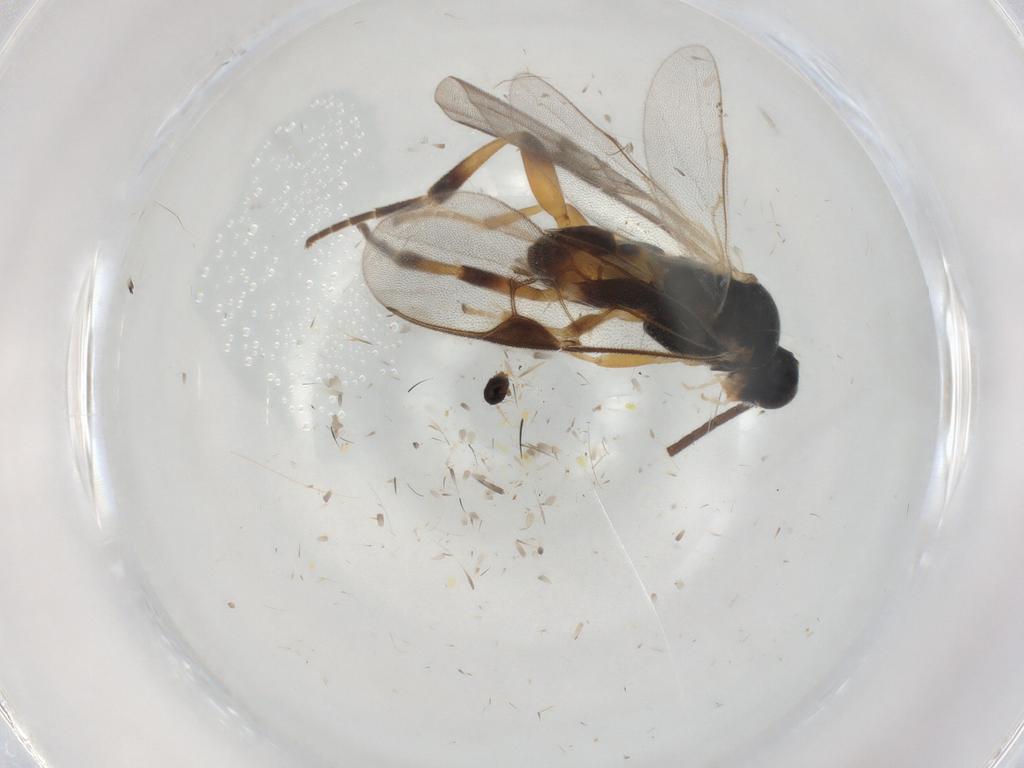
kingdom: Animalia
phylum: Arthropoda
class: Insecta
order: Hymenoptera
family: Braconidae
